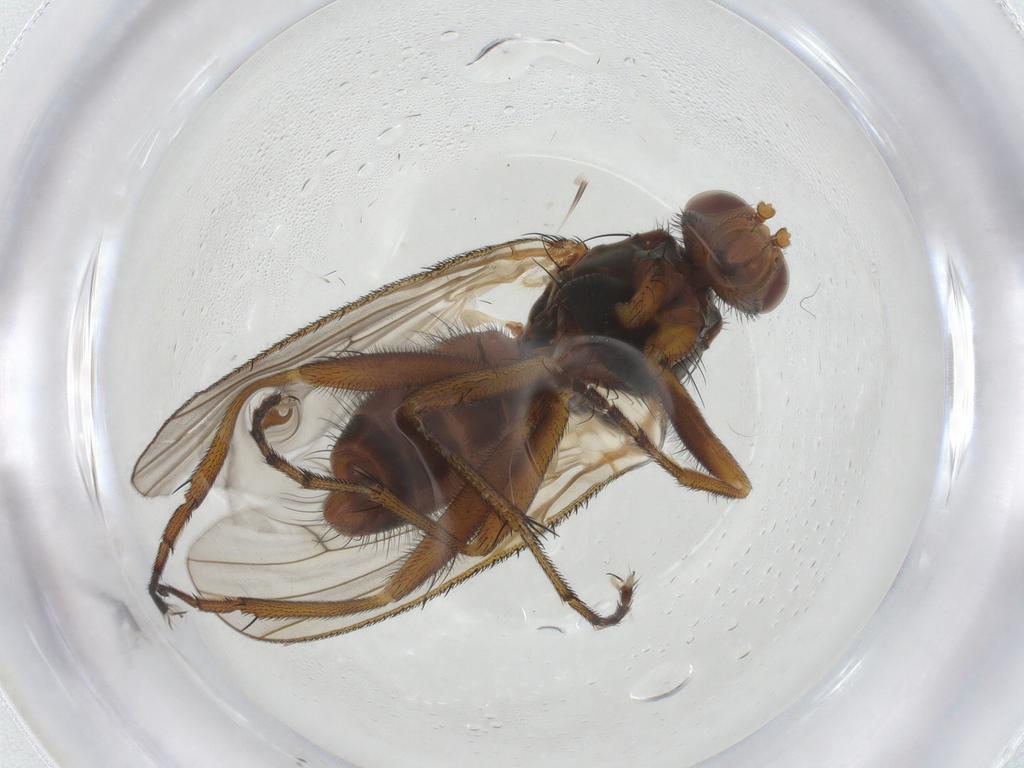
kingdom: Animalia
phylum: Arthropoda
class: Insecta
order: Diptera
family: Heleomyzidae
